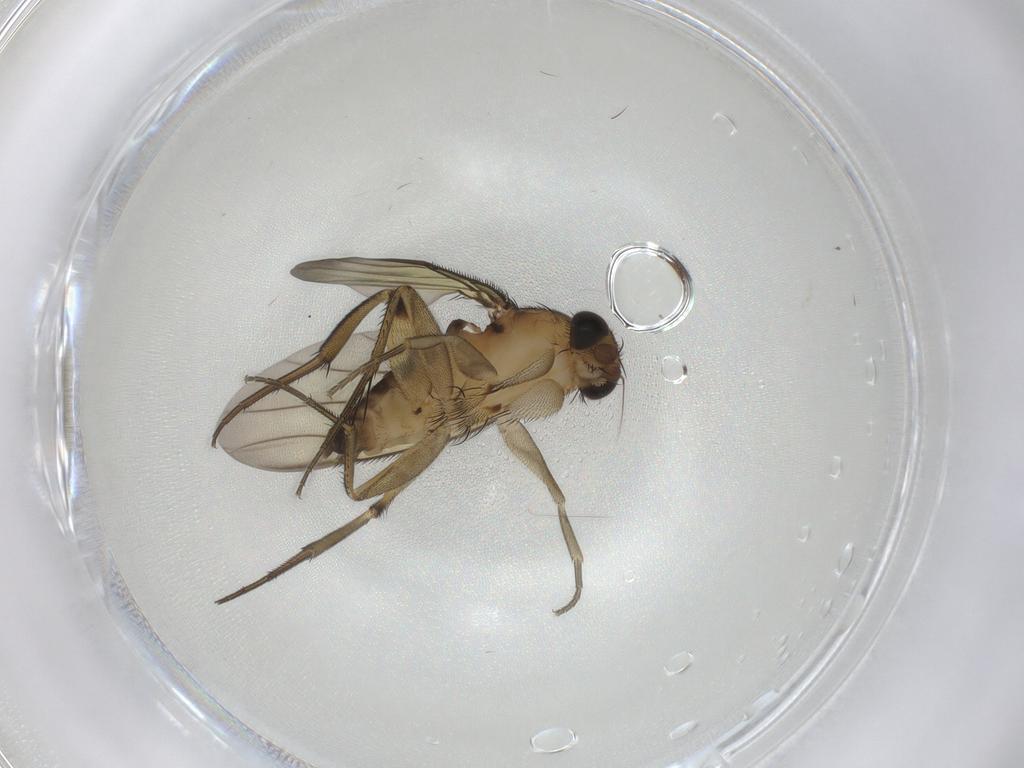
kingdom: Animalia
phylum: Arthropoda
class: Insecta
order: Diptera
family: Phoridae
